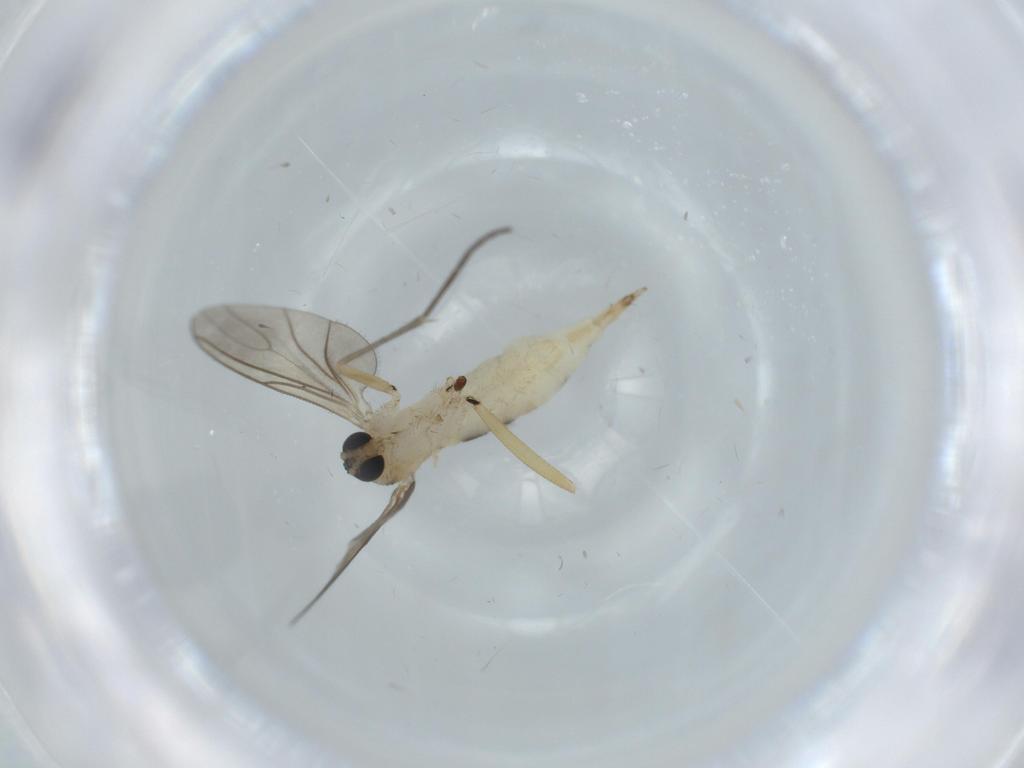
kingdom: Animalia
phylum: Arthropoda
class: Insecta
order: Diptera
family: Sciaridae
